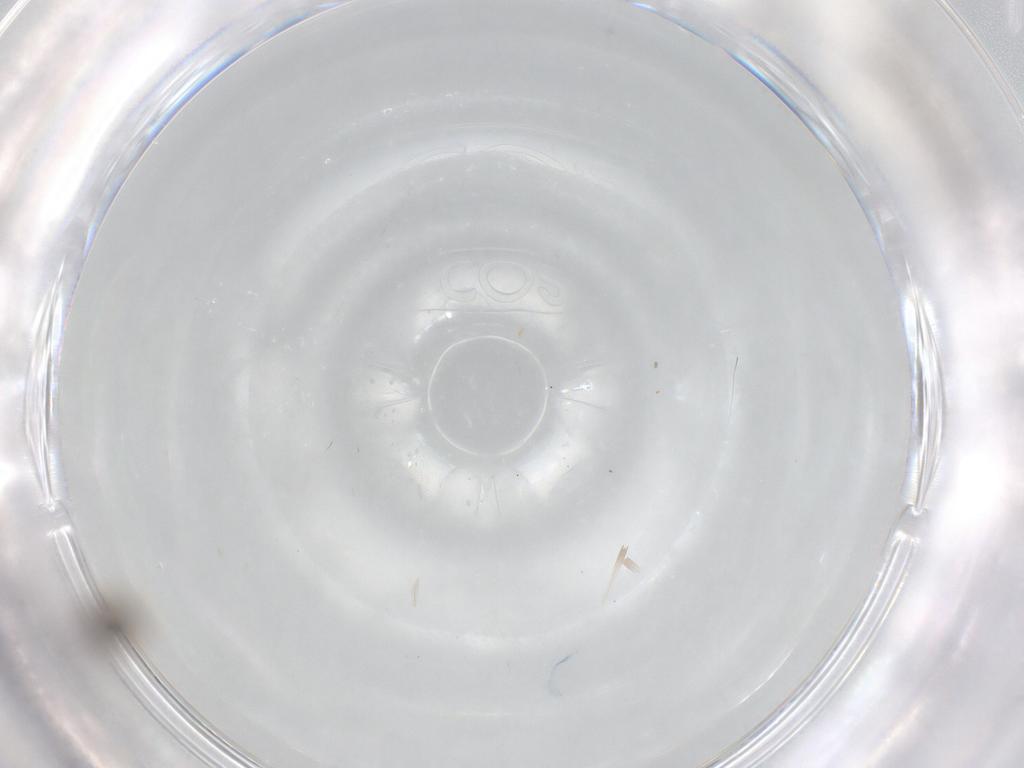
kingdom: Animalia
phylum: Arthropoda
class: Insecta
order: Diptera
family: Chironomidae
